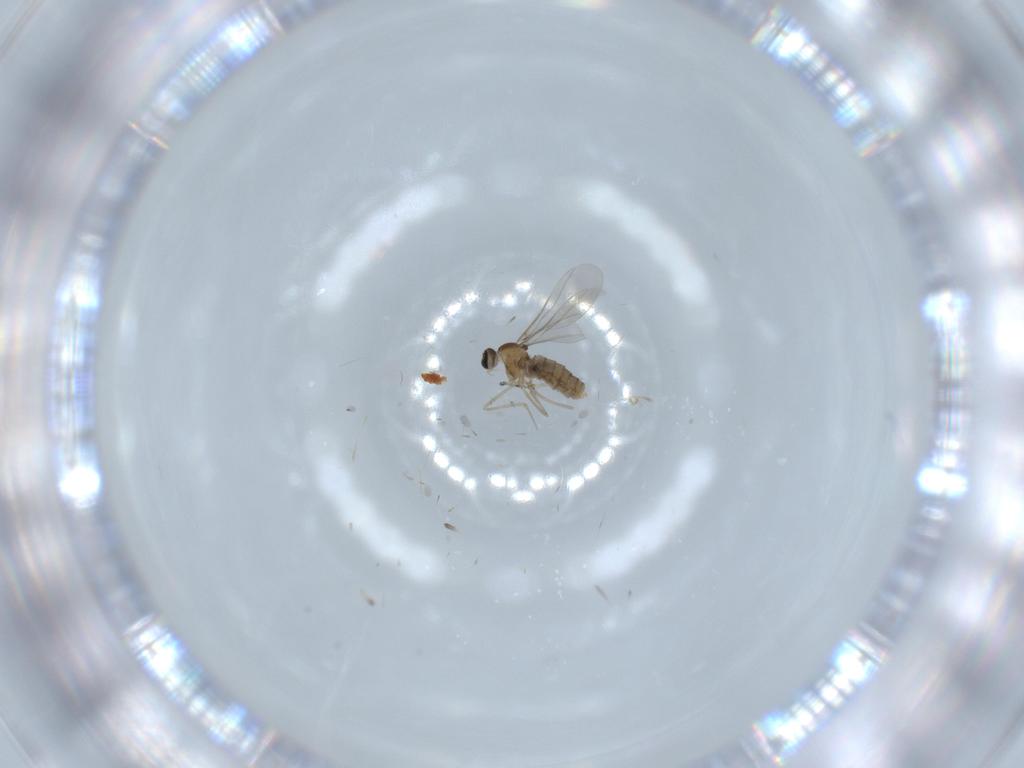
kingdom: Animalia
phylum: Arthropoda
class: Insecta
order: Diptera
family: Cecidomyiidae
